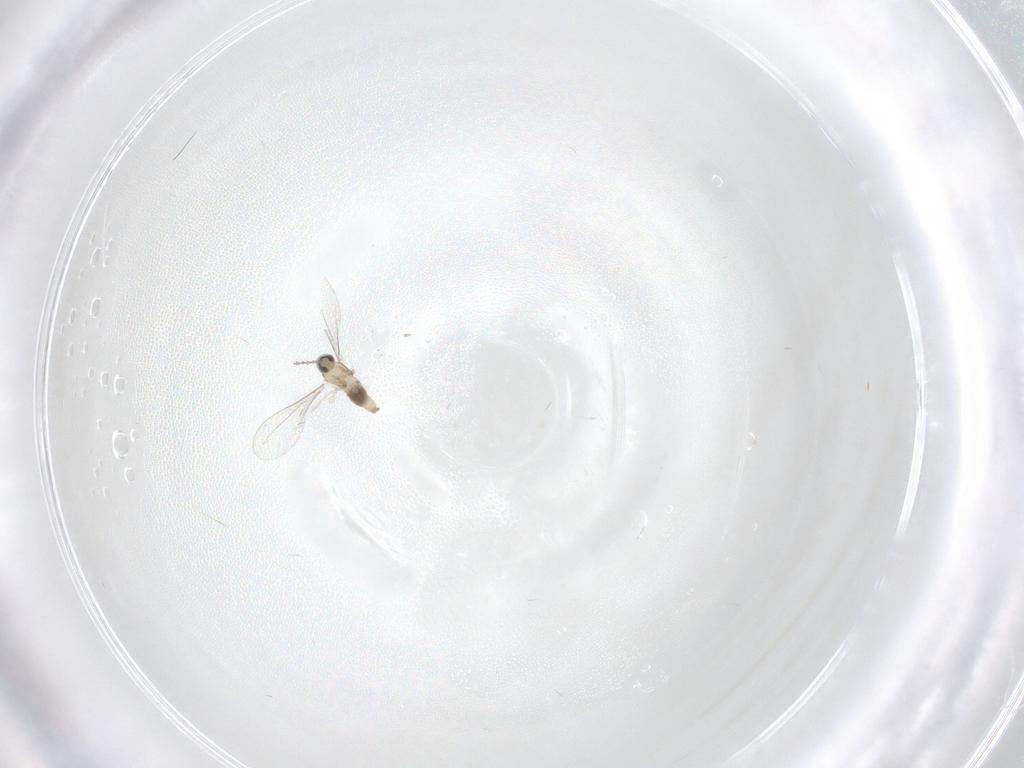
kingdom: Animalia
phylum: Arthropoda
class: Insecta
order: Diptera
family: Cecidomyiidae
